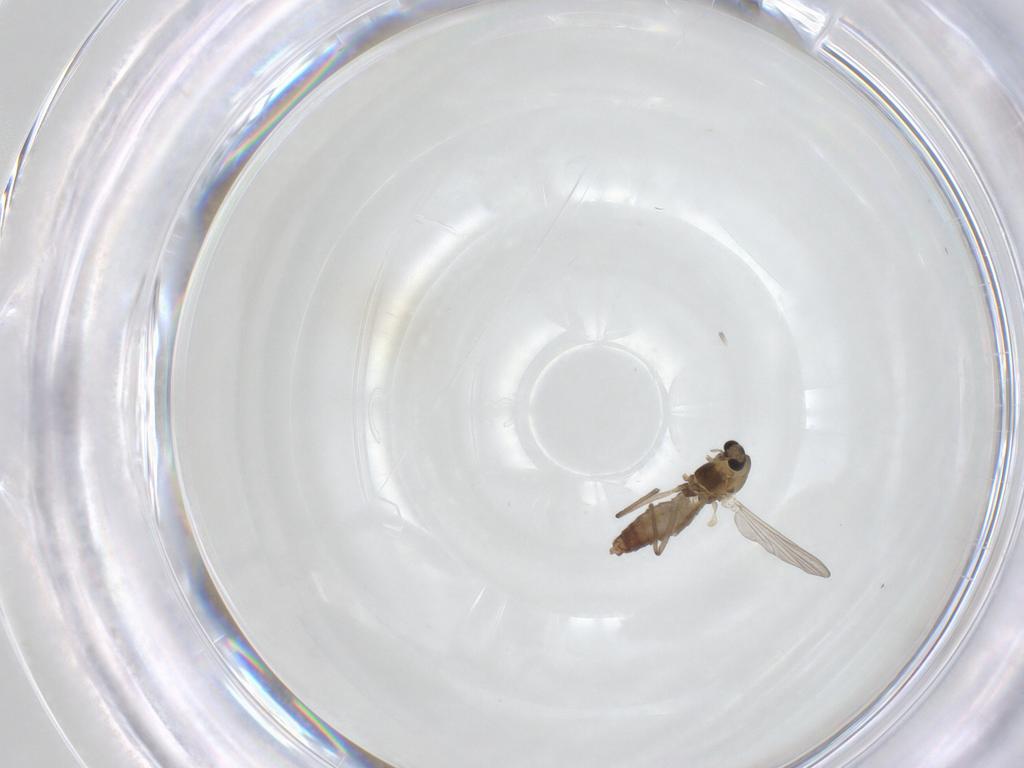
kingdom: Animalia
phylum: Arthropoda
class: Insecta
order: Diptera
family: Chironomidae
